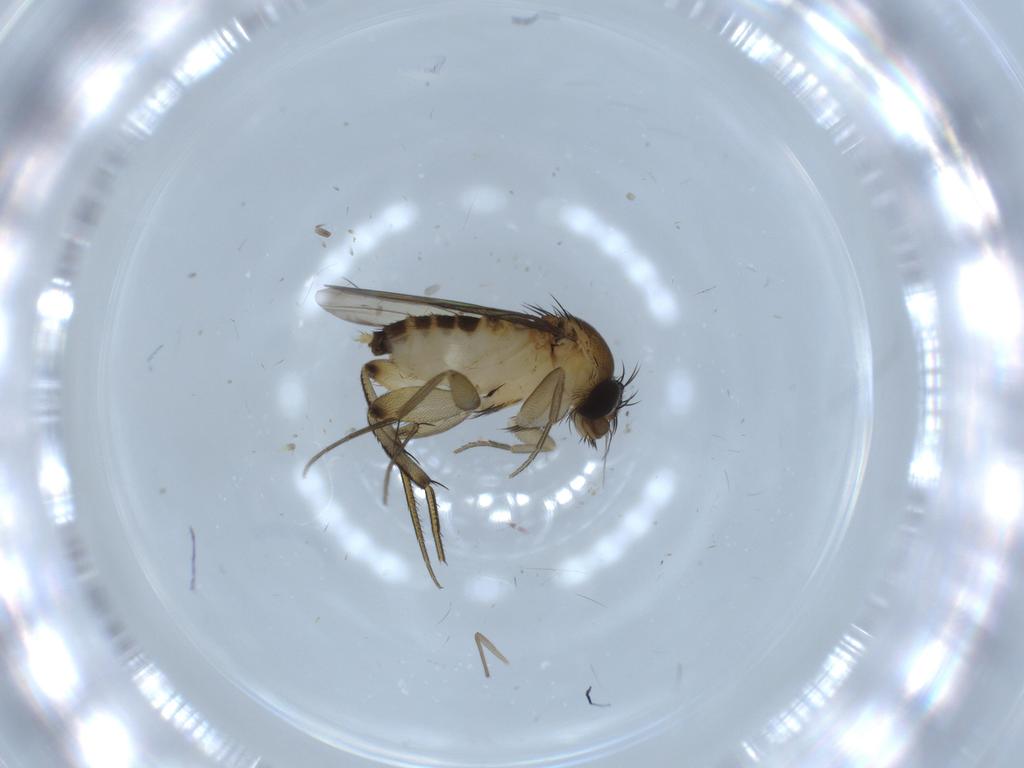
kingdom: Animalia
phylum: Arthropoda
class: Insecta
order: Diptera
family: Phoridae
